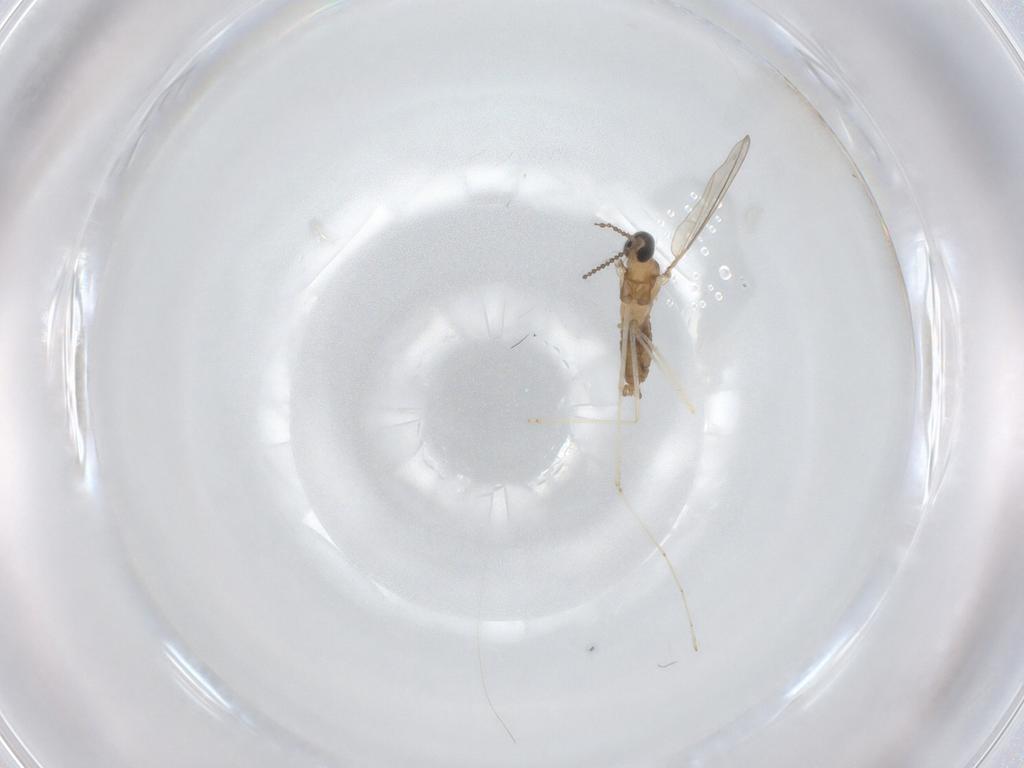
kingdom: Animalia
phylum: Arthropoda
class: Insecta
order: Diptera
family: Cecidomyiidae
